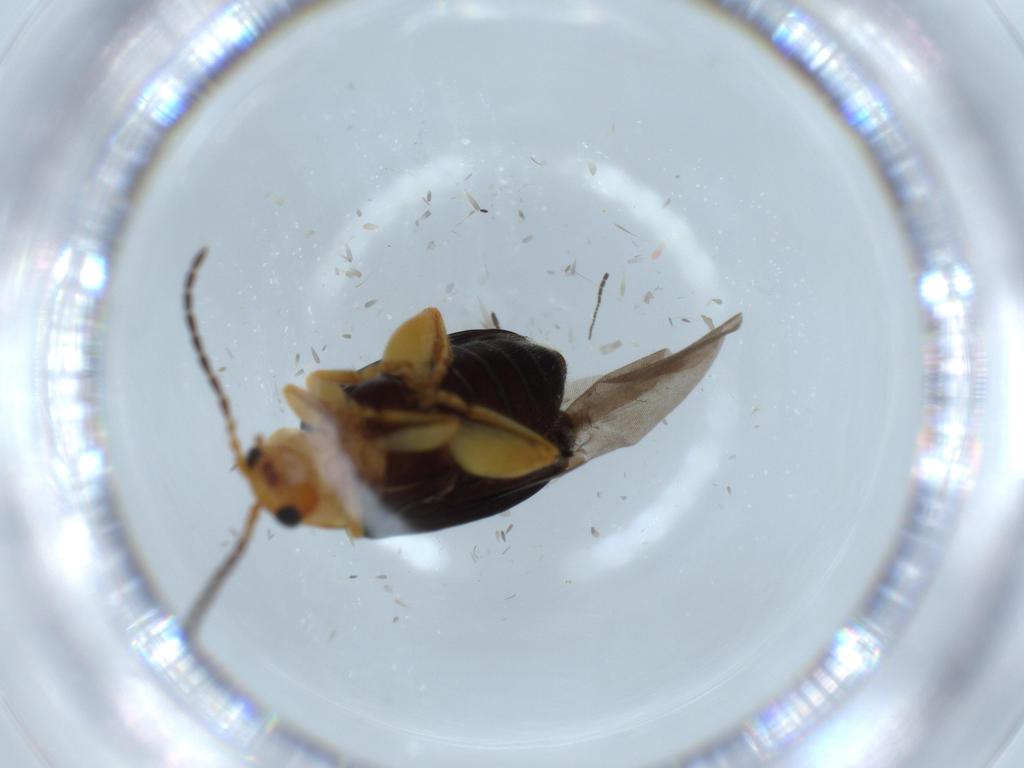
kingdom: Animalia
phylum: Arthropoda
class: Insecta
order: Coleoptera
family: Chrysomelidae
